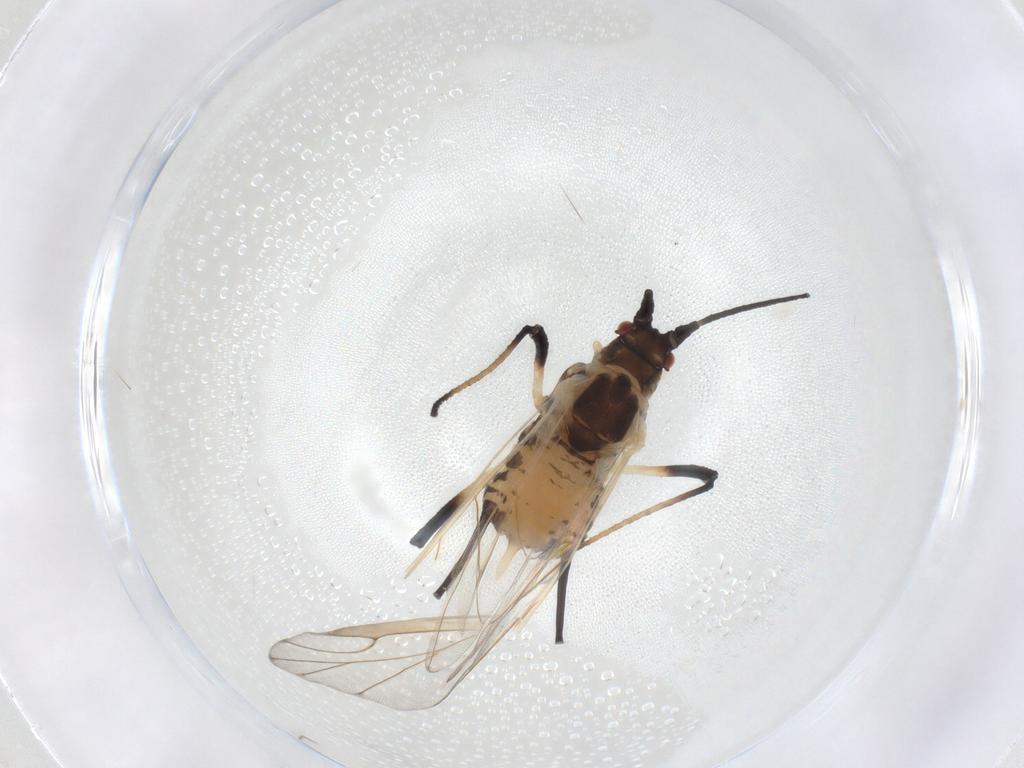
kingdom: Animalia
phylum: Arthropoda
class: Insecta
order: Hemiptera
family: Aphididae
